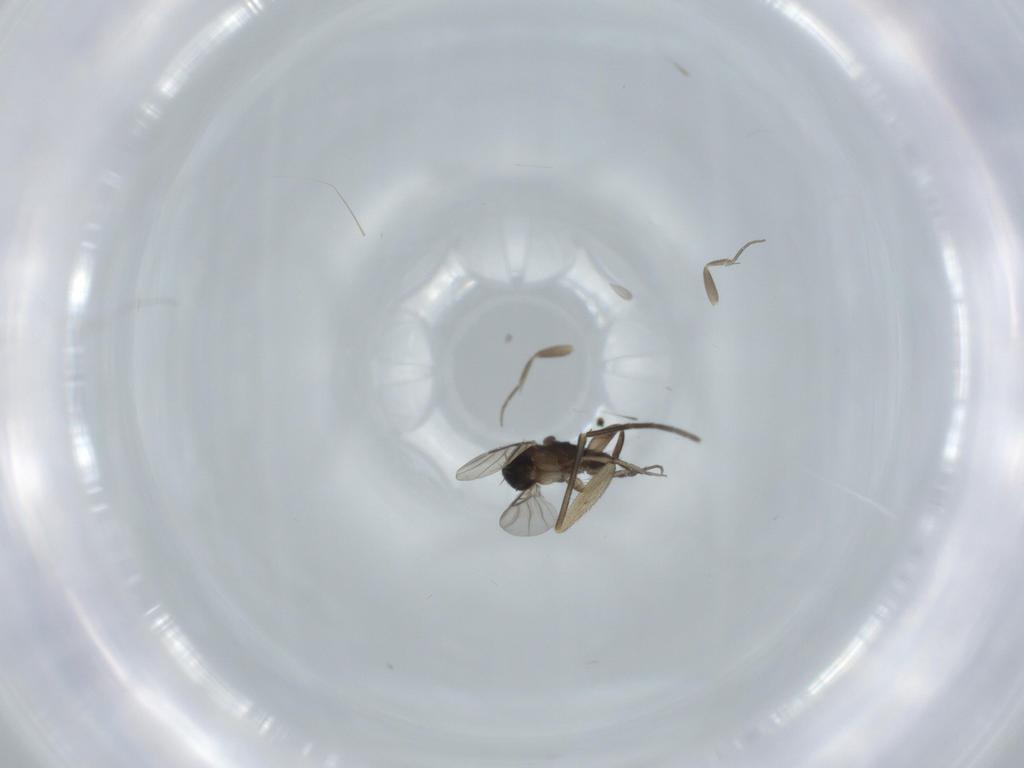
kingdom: Animalia
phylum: Arthropoda
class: Insecta
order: Diptera
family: Phoridae
